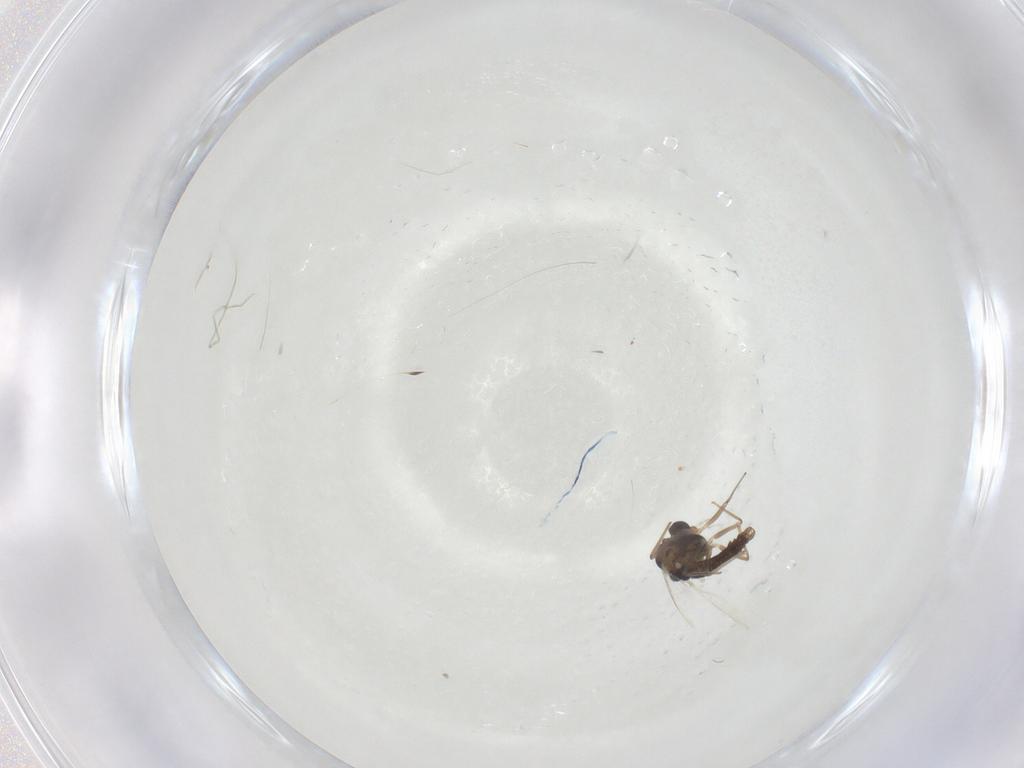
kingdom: Animalia
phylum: Arthropoda
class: Insecta
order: Diptera
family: Chironomidae
